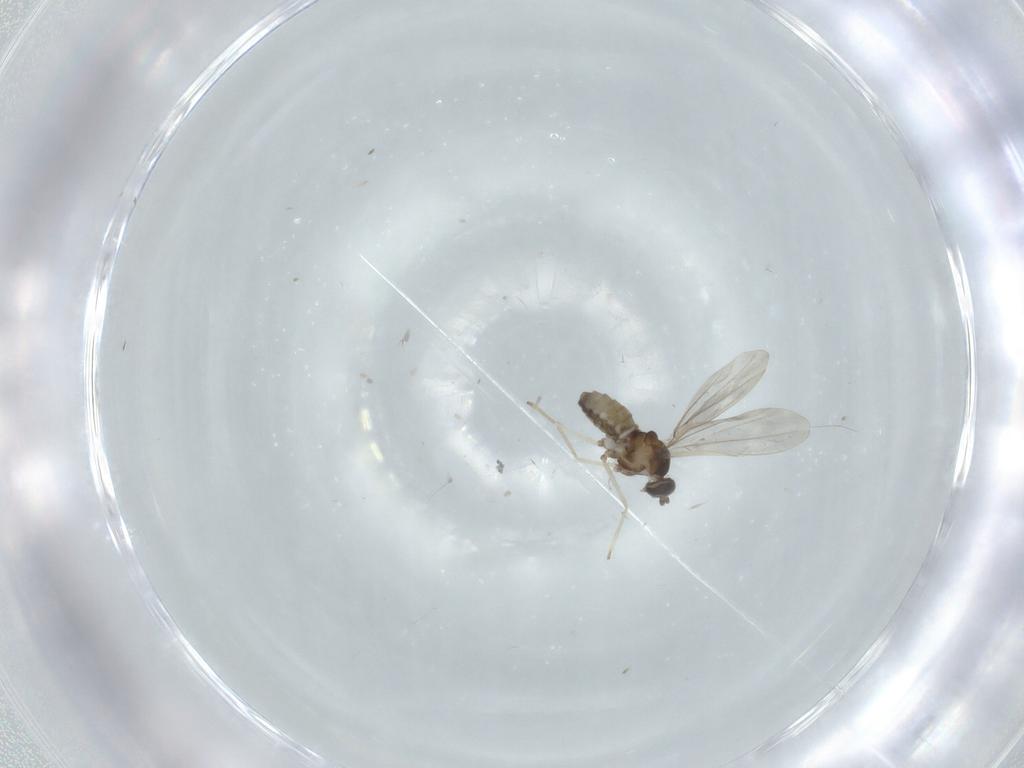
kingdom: Animalia
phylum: Arthropoda
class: Insecta
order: Diptera
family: Cecidomyiidae
